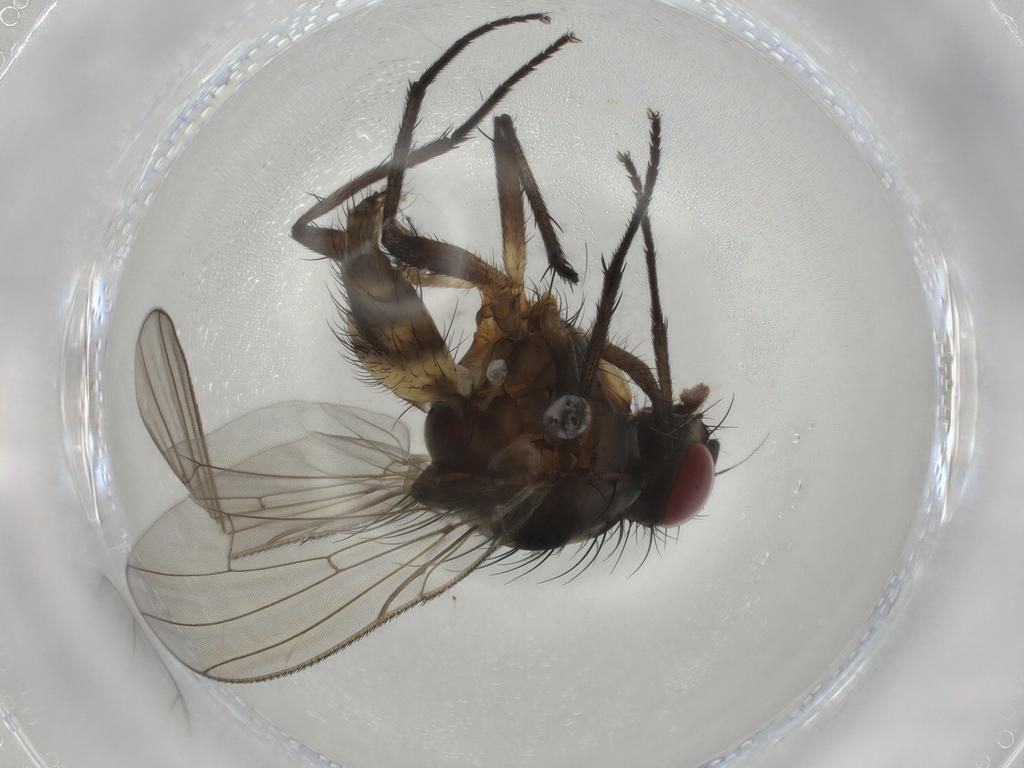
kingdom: Animalia
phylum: Arthropoda
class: Insecta
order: Diptera
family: Anthomyiidae
